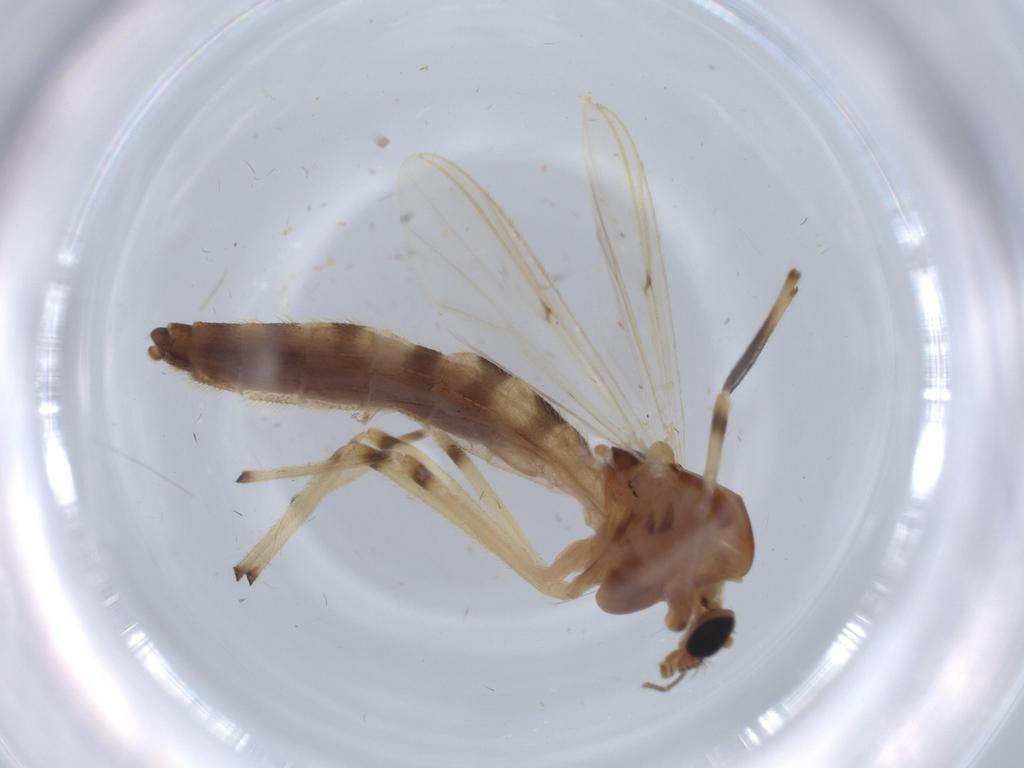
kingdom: Animalia
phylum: Arthropoda
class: Insecta
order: Diptera
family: Chironomidae
